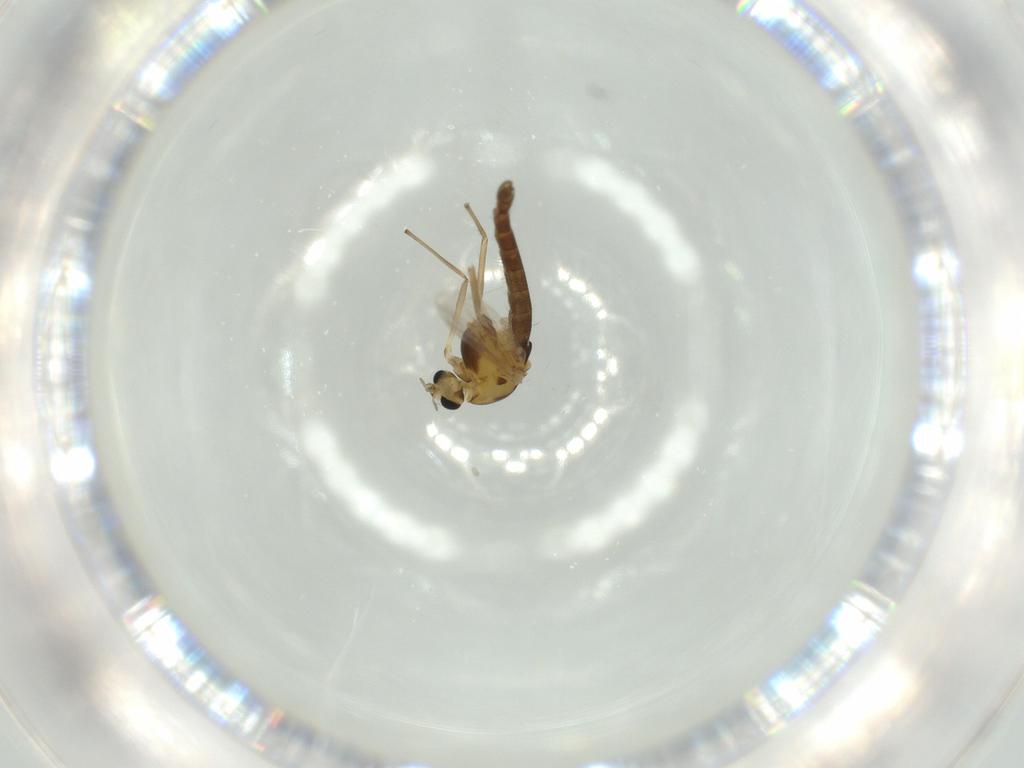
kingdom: Animalia
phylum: Arthropoda
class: Insecta
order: Diptera
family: Chironomidae
